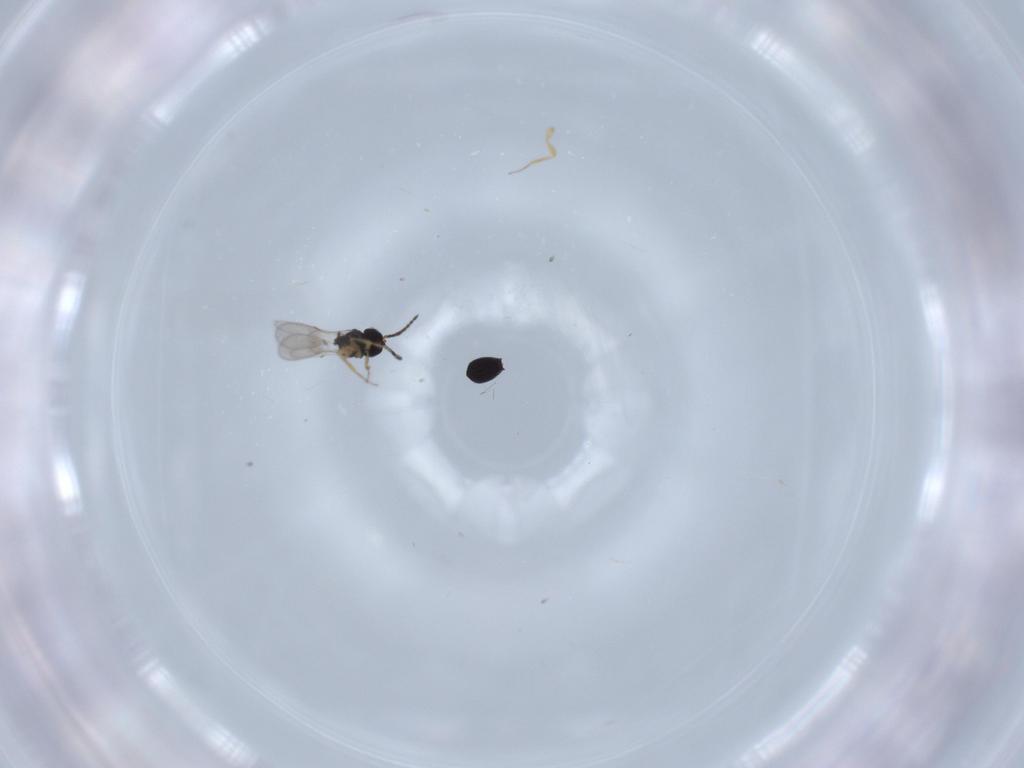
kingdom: Animalia
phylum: Arthropoda
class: Insecta
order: Hymenoptera
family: Scelionidae
